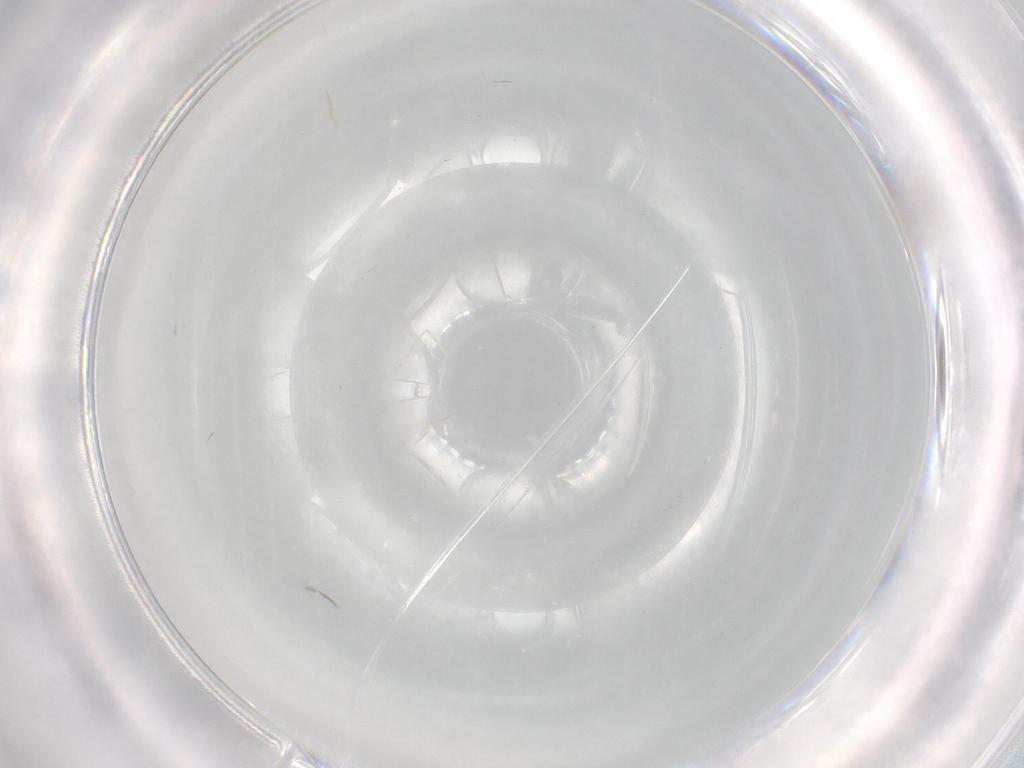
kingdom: Animalia
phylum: Arthropoda
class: Insecta
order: Diptera
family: Cecidomyiidae
